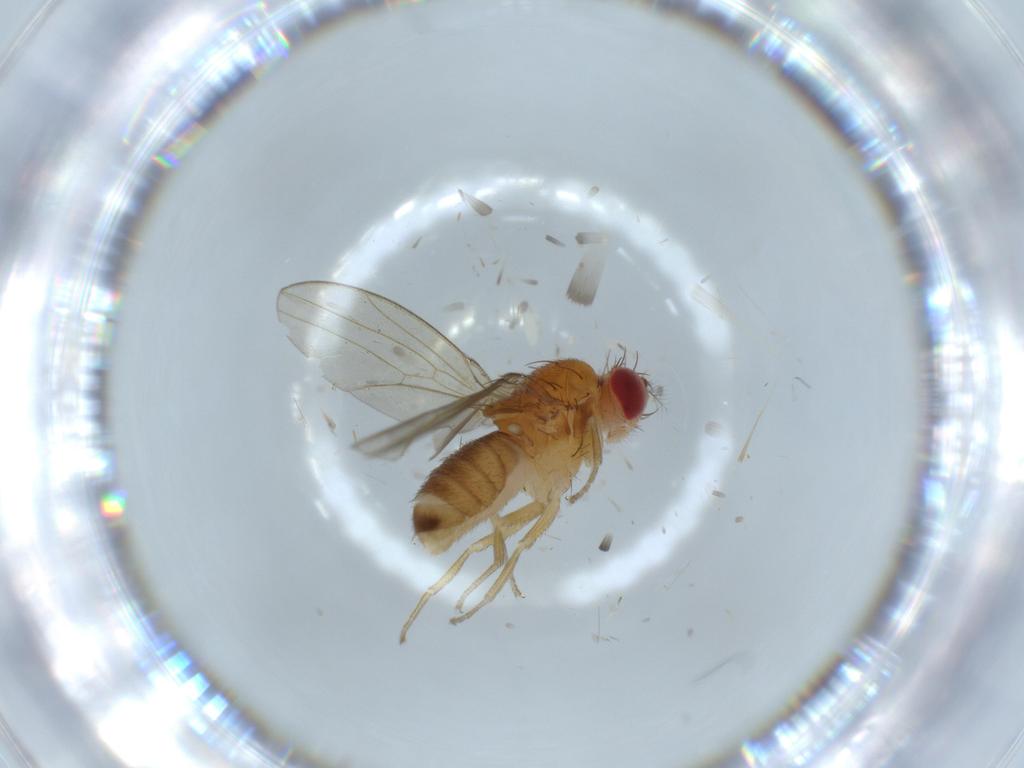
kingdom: Animalia
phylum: Arthropoda
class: Insecta
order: Diptera
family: Drosophilidae
